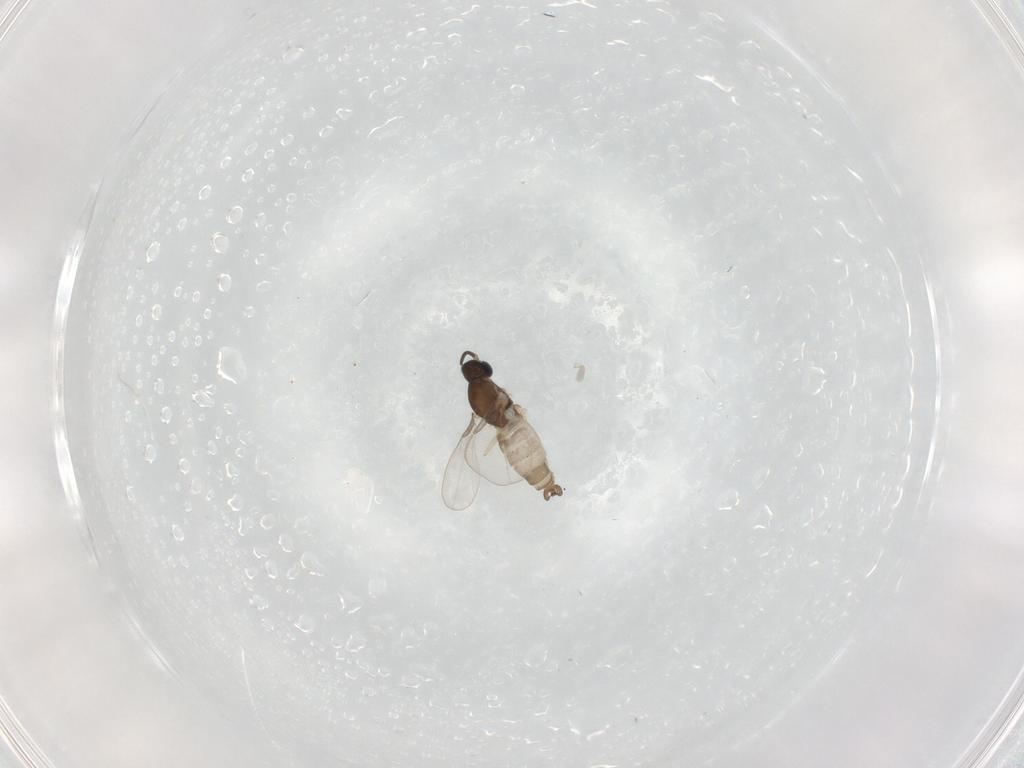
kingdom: Animalia
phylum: Arthropoda
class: Insecta
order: Diptera
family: Cecidomyiidae
